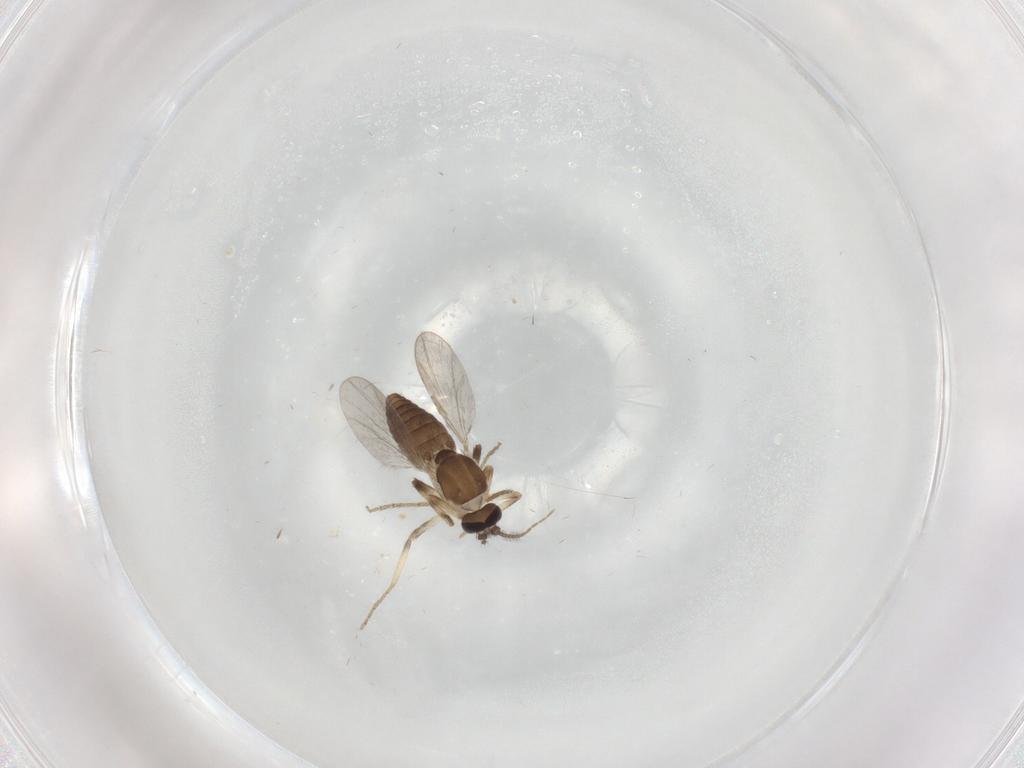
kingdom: Animalia
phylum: Arthropoda
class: Insecta
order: Diptera
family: Ceratopogonidae
